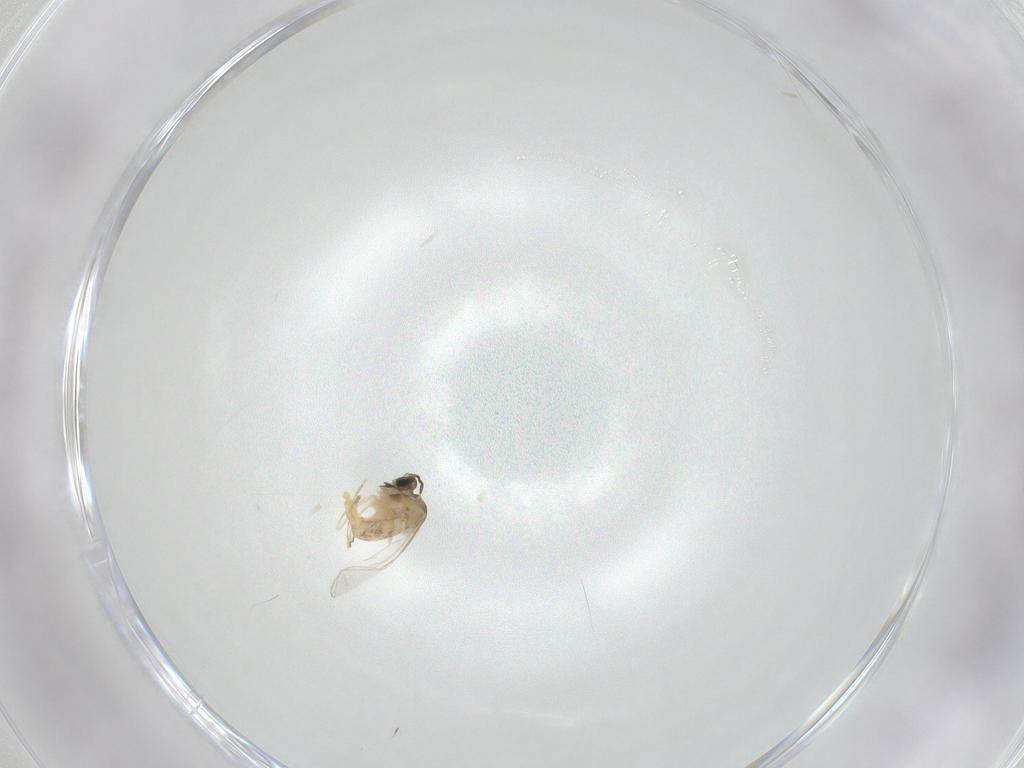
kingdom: Animalia
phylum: Arthropoda
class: Insecta
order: Diptera
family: Cecidomyiidae
